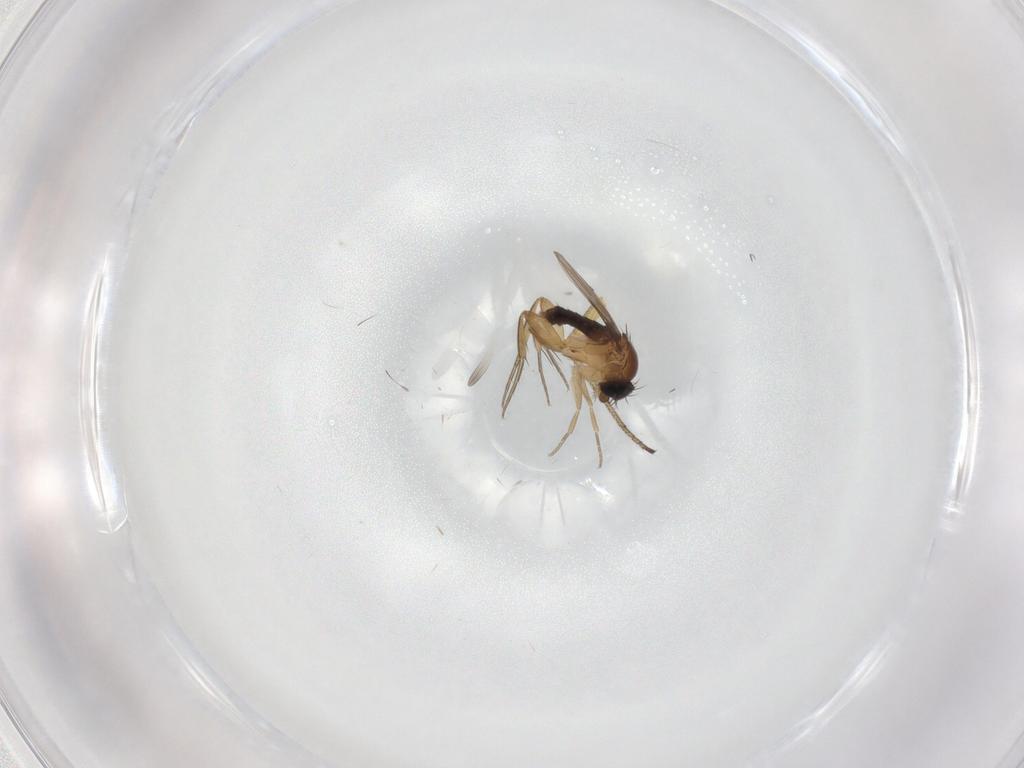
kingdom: Animalia
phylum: Arthropoda
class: Insecta
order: Diptera
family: Phoridae
